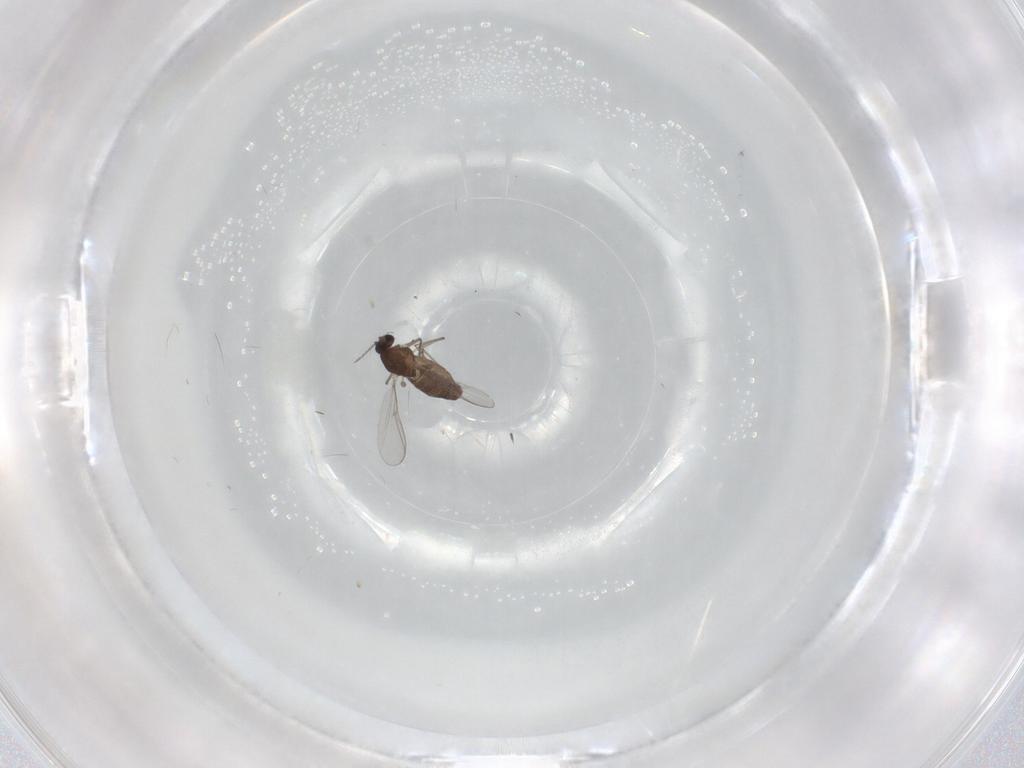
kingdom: Animalia
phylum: Arthropoda
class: Insecta
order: Diptera
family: Chironomidae
